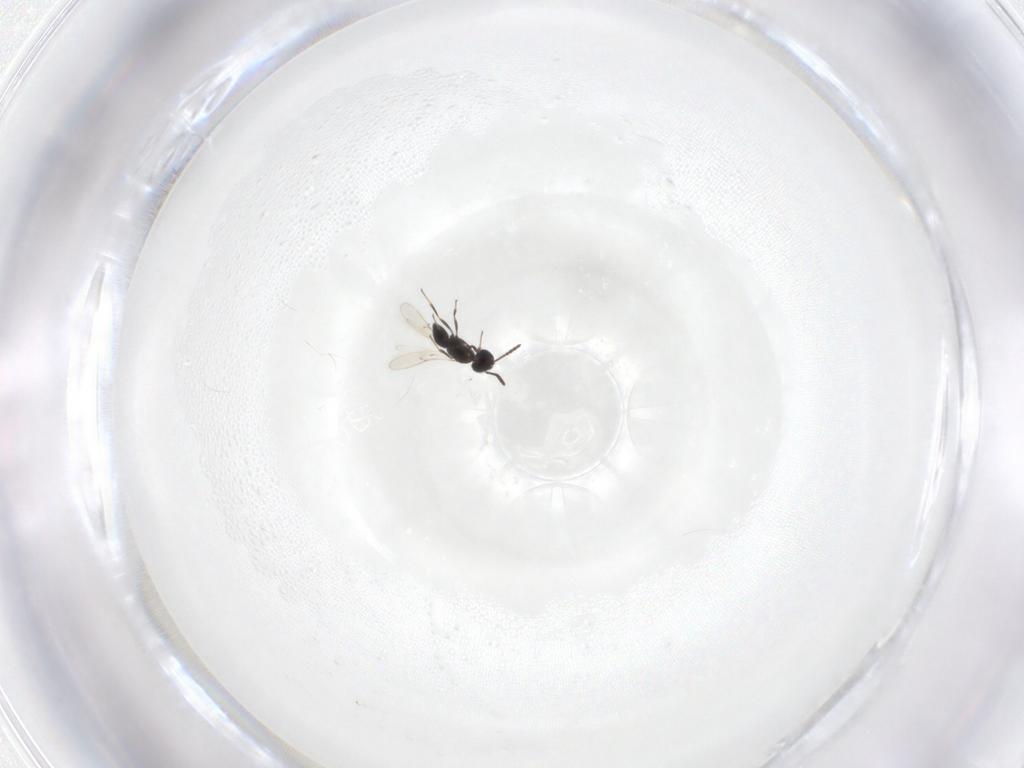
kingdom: Animalia
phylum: Arthropoda
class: Insecta
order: Hymenoptera
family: Scelionidae
